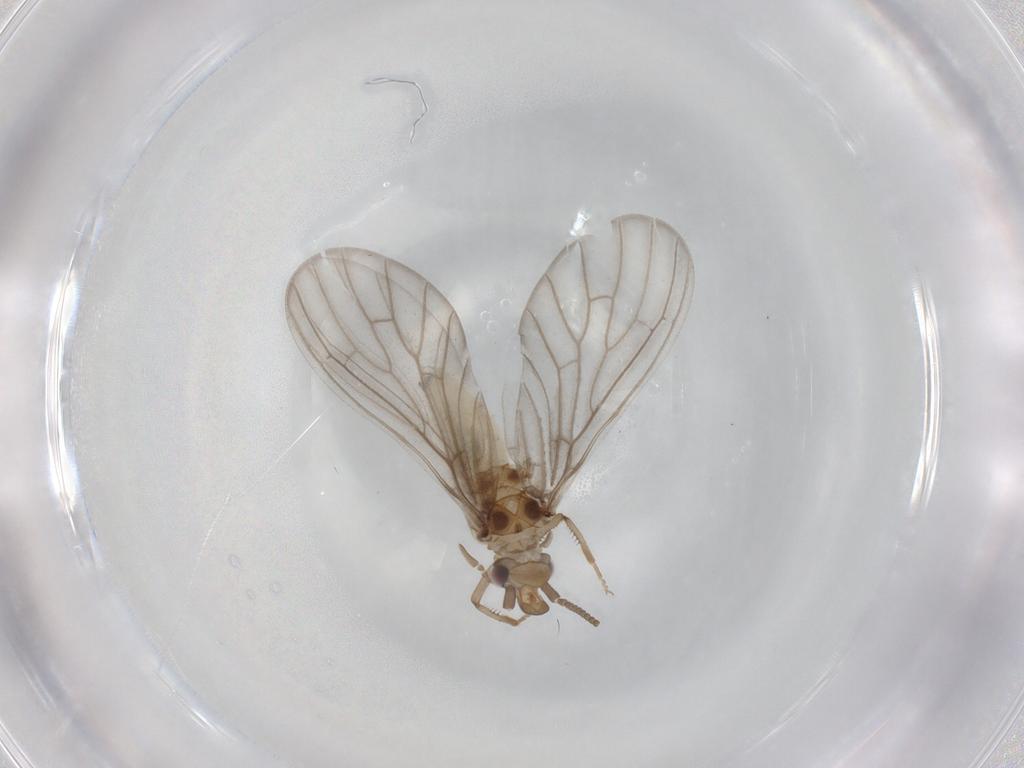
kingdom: Animalia
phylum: Arthropoda
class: Insecta
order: Neuroptera
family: Coniopterygidae
